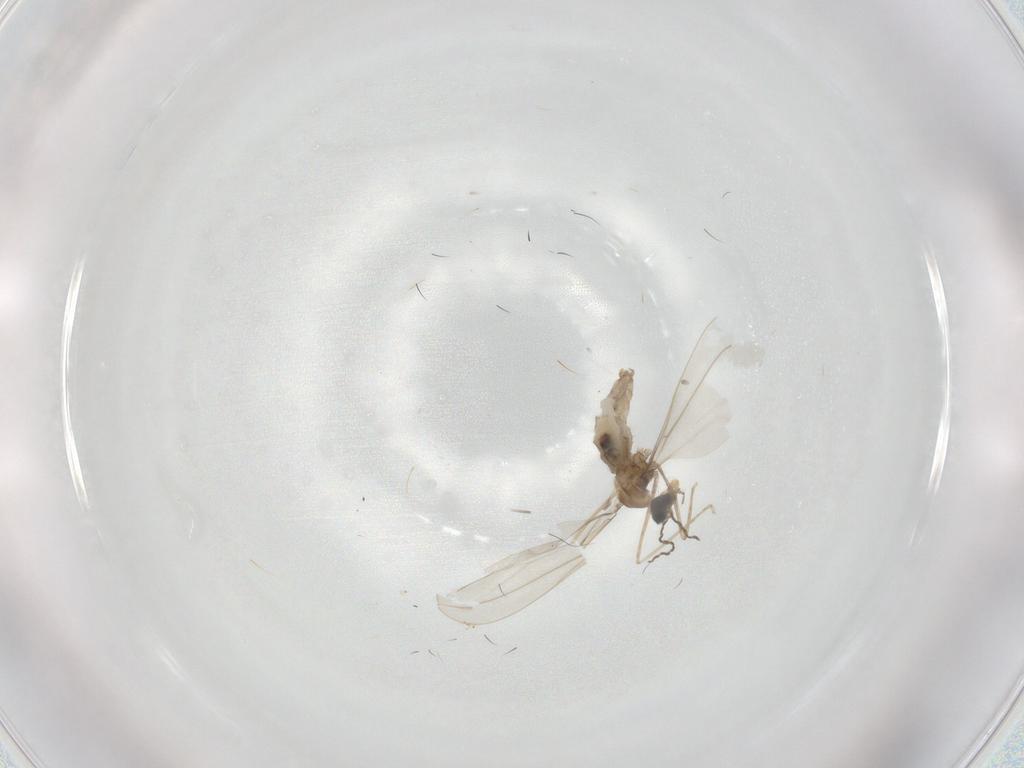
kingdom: Animalia
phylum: Arthropoda
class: Insecta
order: Diptera
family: Cecidomyiidae
